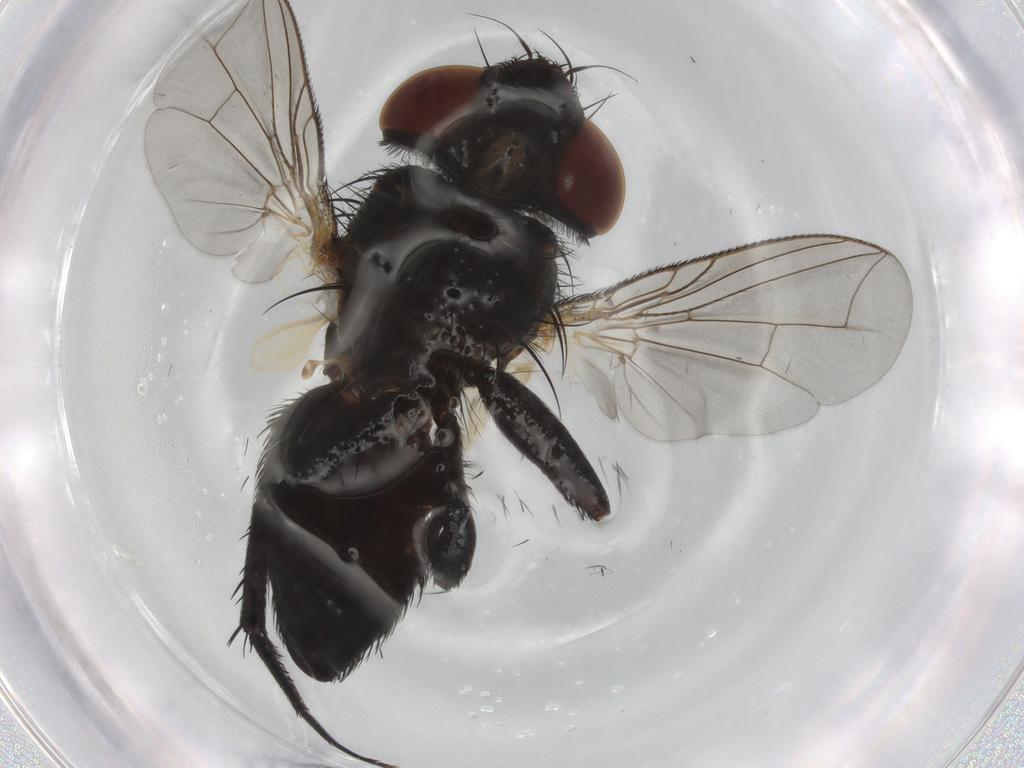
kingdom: Animalia
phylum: Arthropoda
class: Insecta
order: Diptera
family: Sarcophagidae
